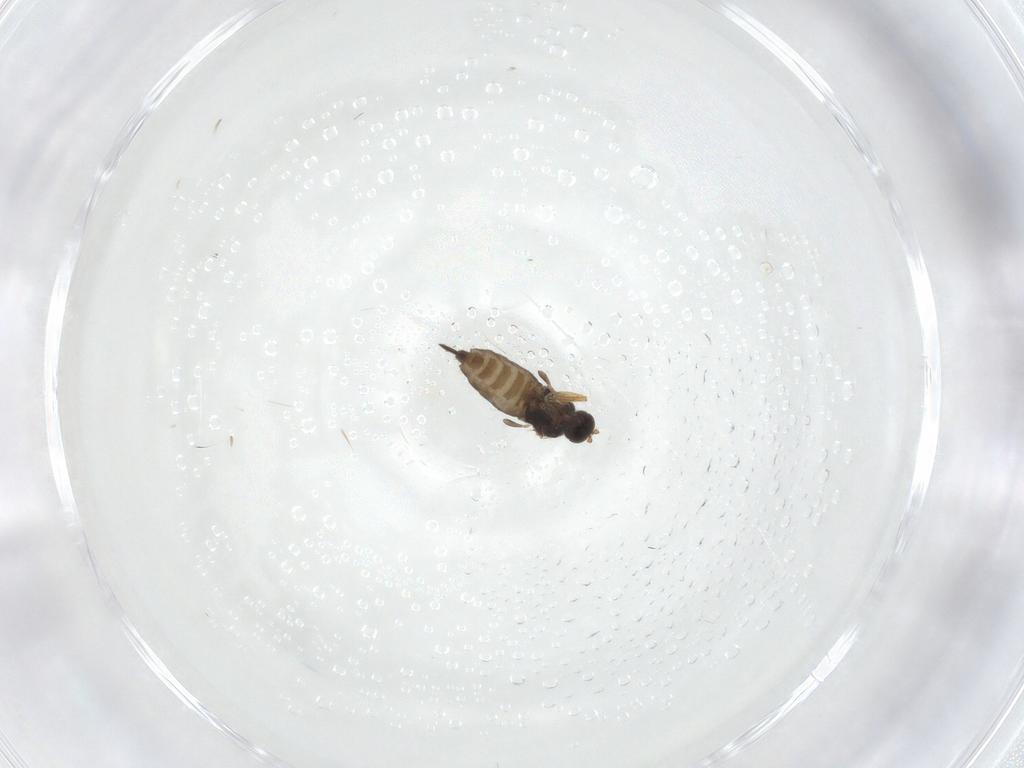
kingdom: Animalia
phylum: Arthropoda
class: Insecta
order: Diptera
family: Hybotidae
